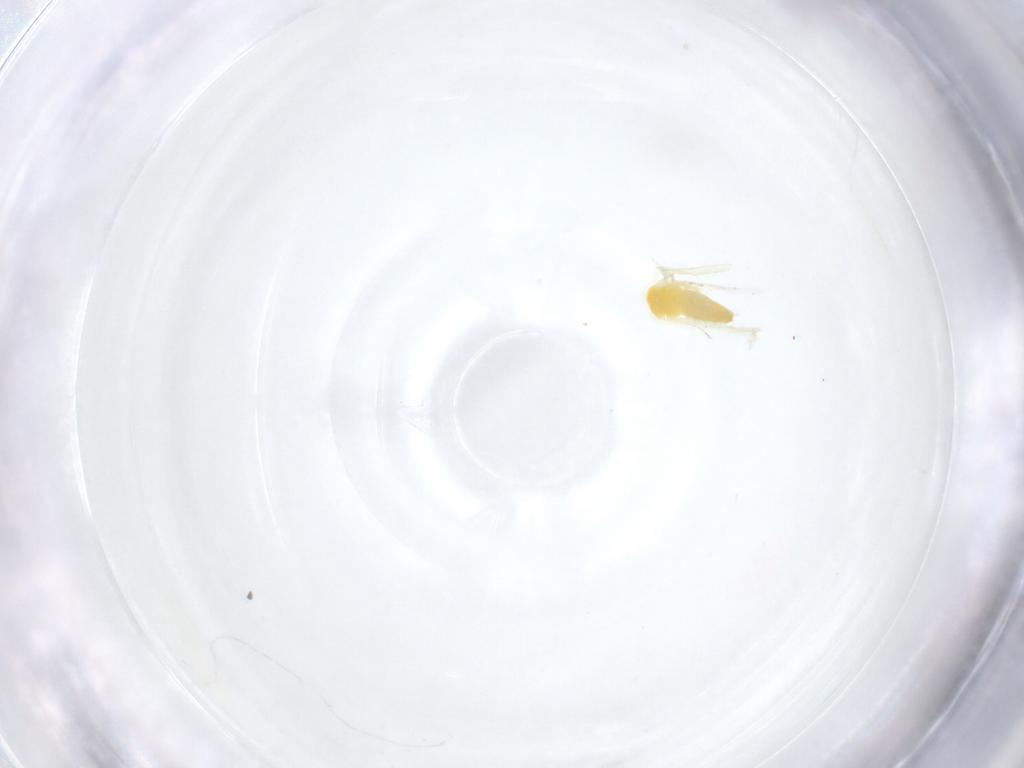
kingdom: Animalia
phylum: Arthropoda
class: Insecta
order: Hemiptera
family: Aleyrodidae
